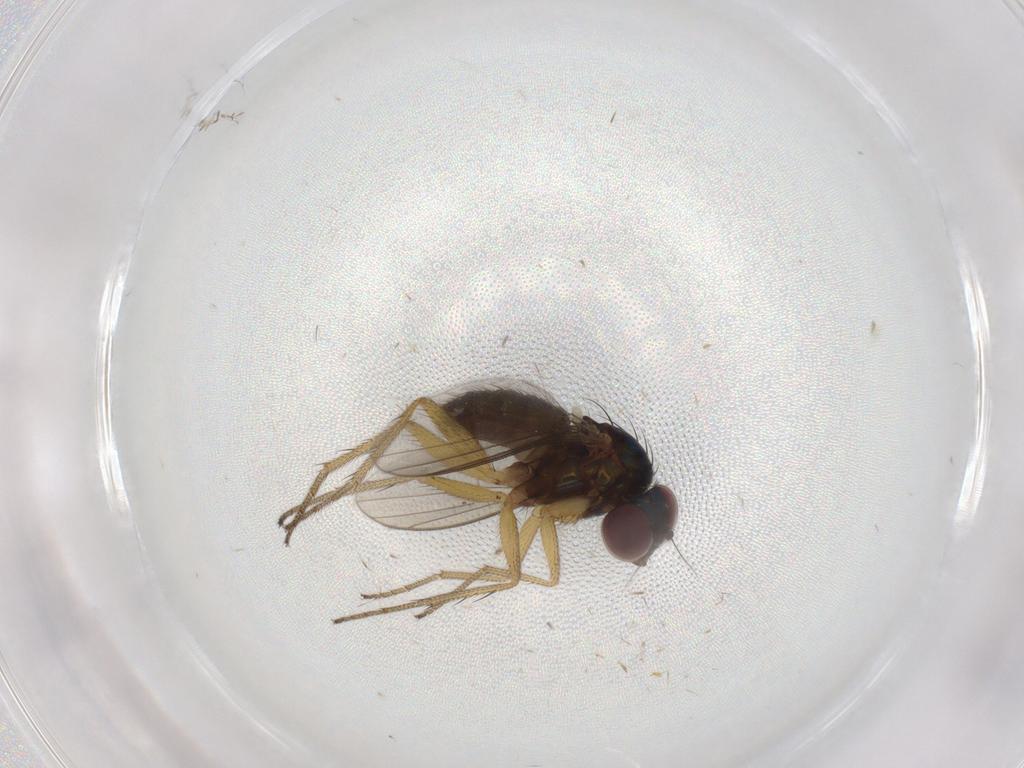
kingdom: Animalia
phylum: Arthropoda
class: Insecta
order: Diptera
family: Dolichopodidae
